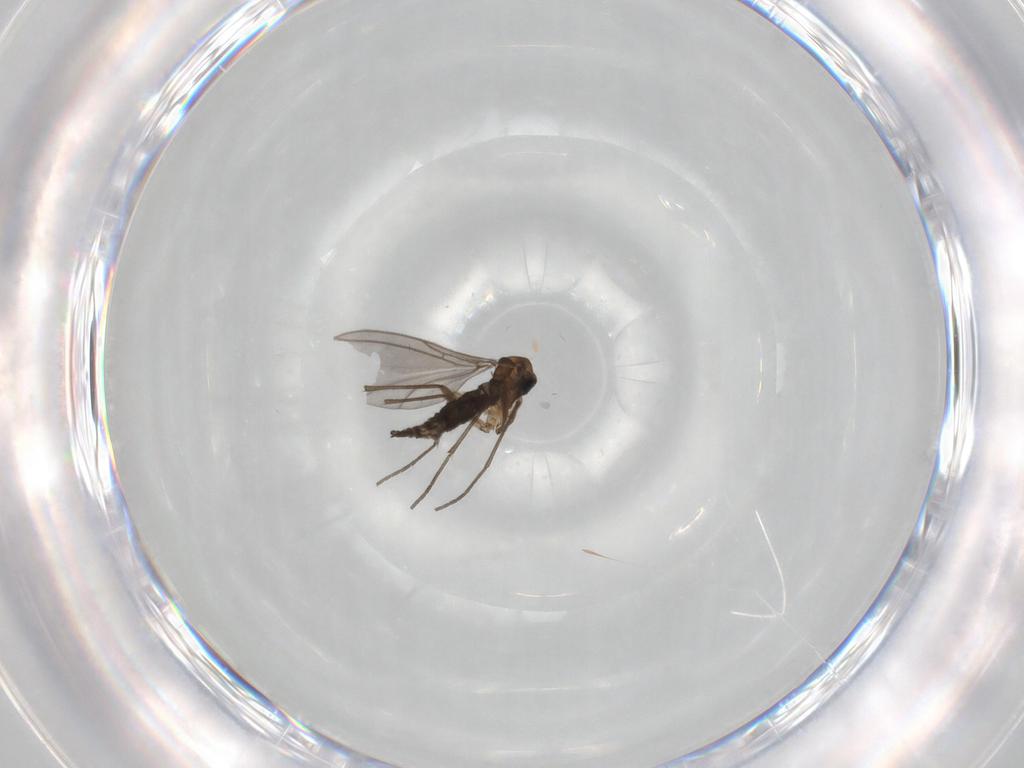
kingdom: Animalia
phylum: Arthropoda
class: Insecta
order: Diptera
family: Sciaridae
